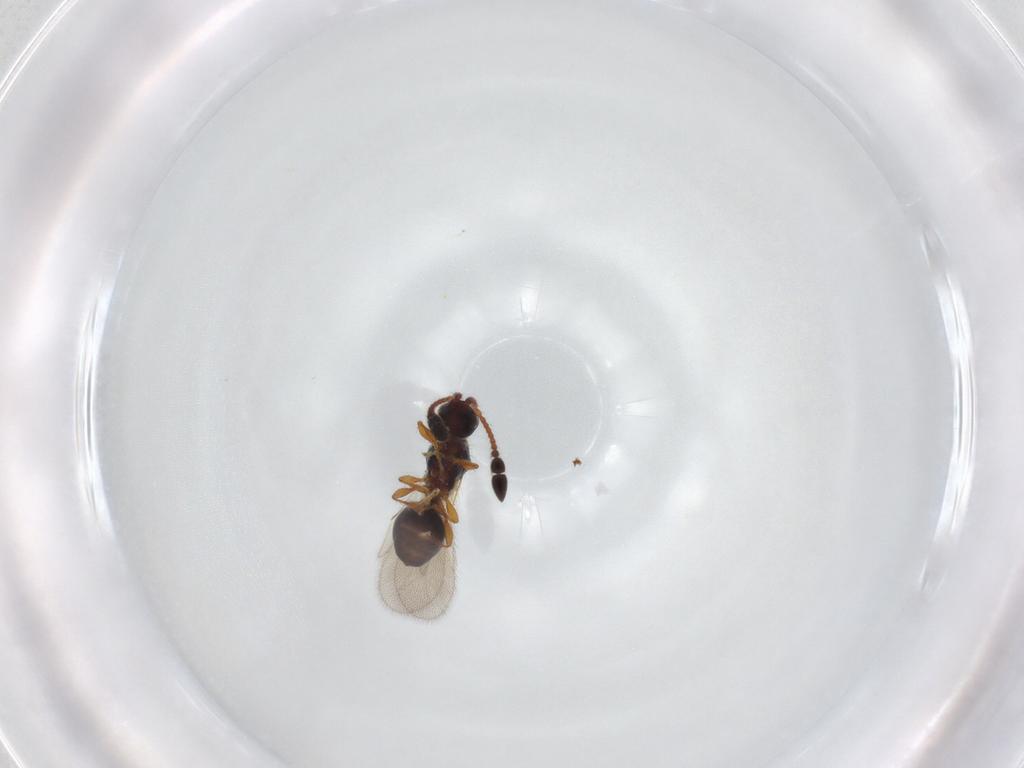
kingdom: Animalia
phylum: Arthropoda
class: Insecta
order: Hymenoptera
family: Diapriidae
